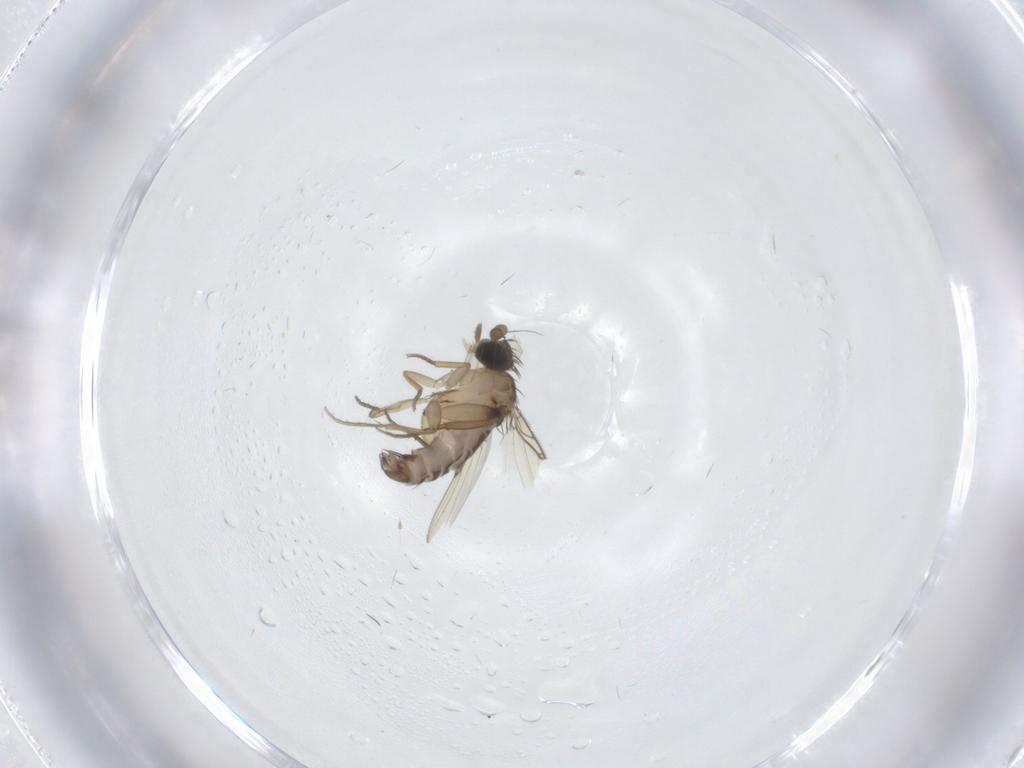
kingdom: Animalia
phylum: Arthropoda
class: Insecta
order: Diptera
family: Phoridae
